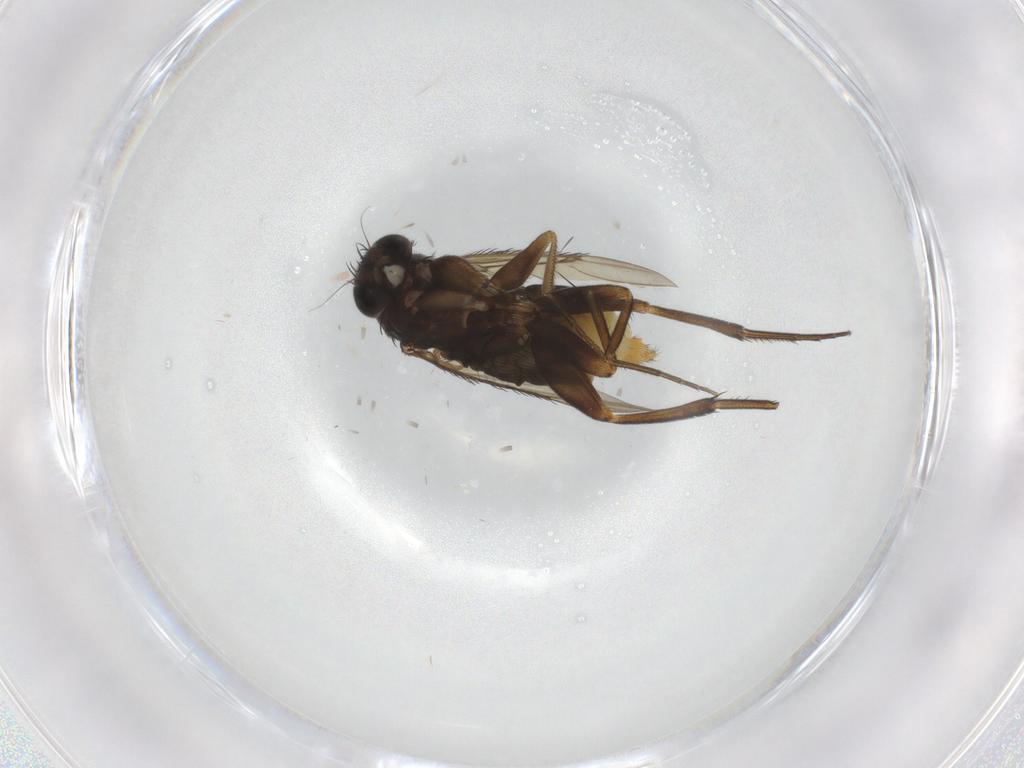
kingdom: Animalia
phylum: Arthropoda
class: Insecta
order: Diptera
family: Phoridae
